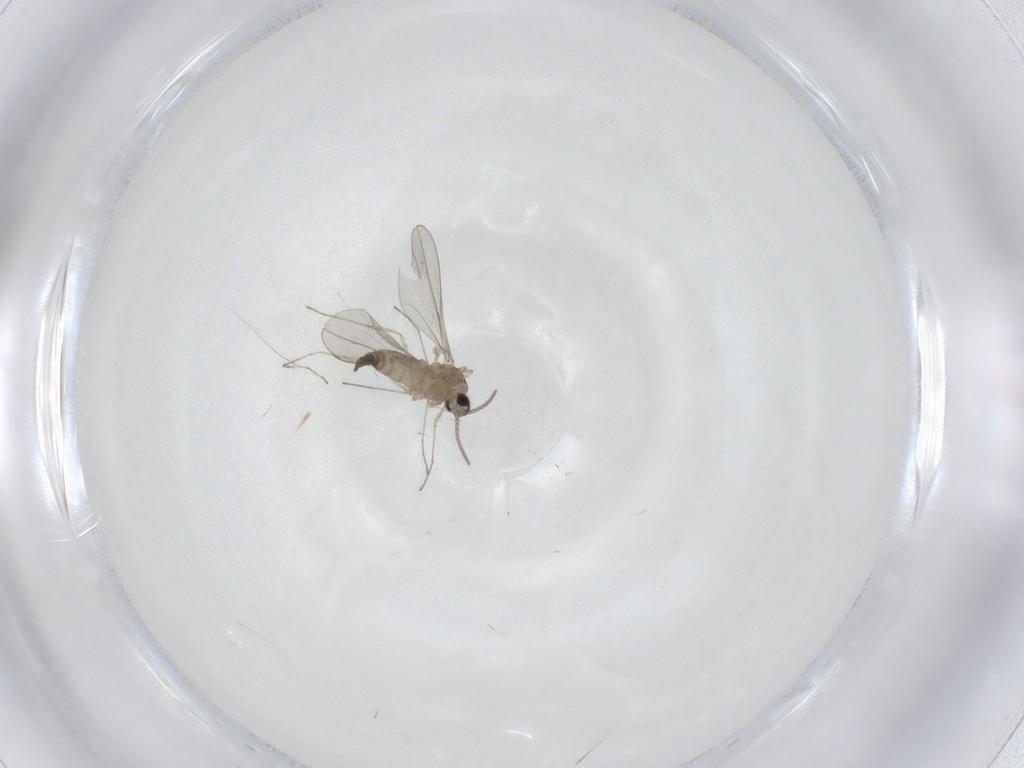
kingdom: Animalia
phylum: Arthropoda
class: Insecta
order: Diptera
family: Cecidomyiidae
